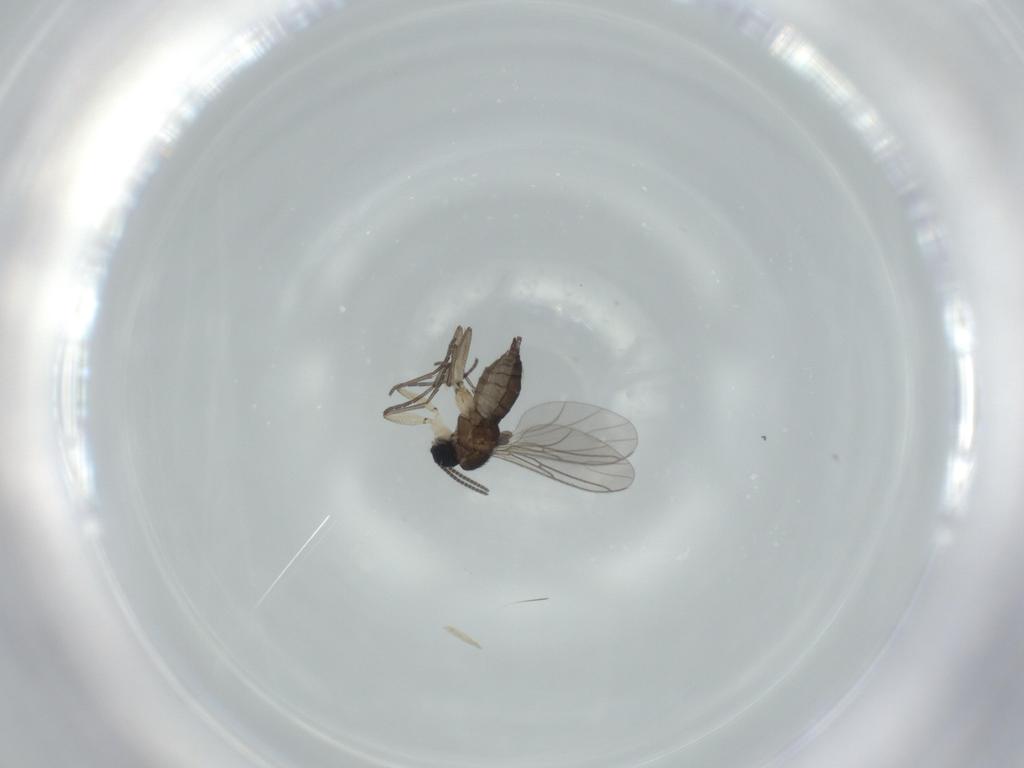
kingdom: Animalia
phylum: Arthropoda
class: Insecta
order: Diptera
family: Sciaridae
